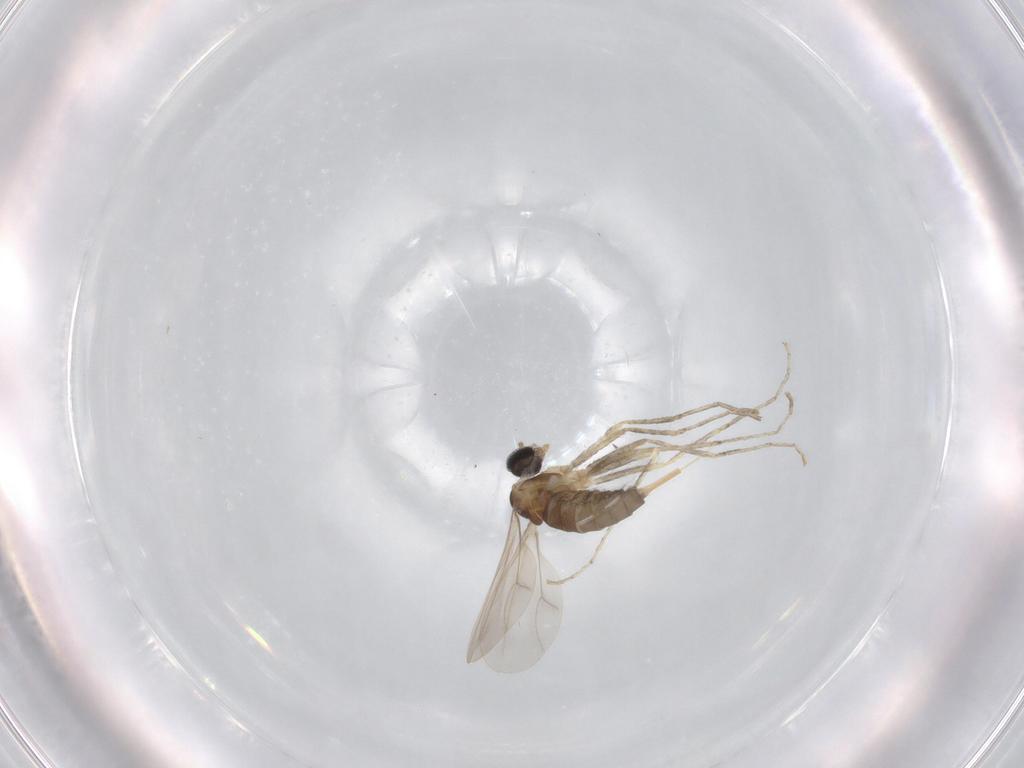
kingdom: Animalia
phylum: Arthropoda
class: Insecta
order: Diptera
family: Cecidomyiidae
